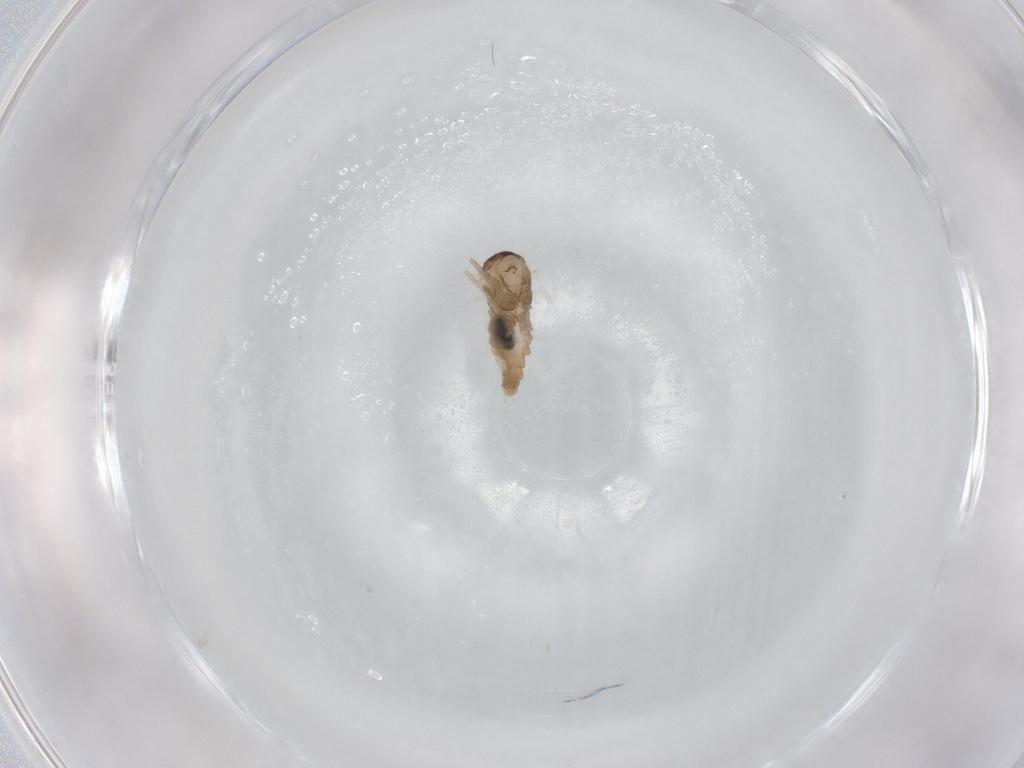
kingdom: Animalia
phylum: Arthropoda
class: Insecta
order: Diptera
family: Cecidomyiidae
